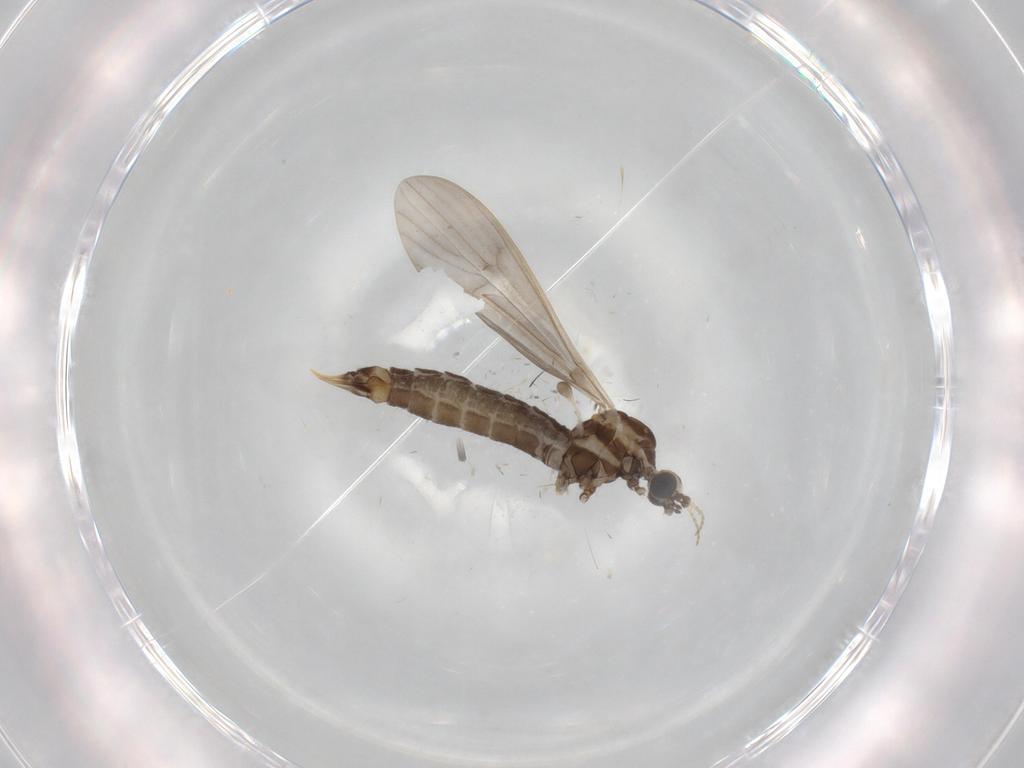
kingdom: Animalia
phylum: Arthropoda
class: Insecta
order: Diptera
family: Limoniidae
